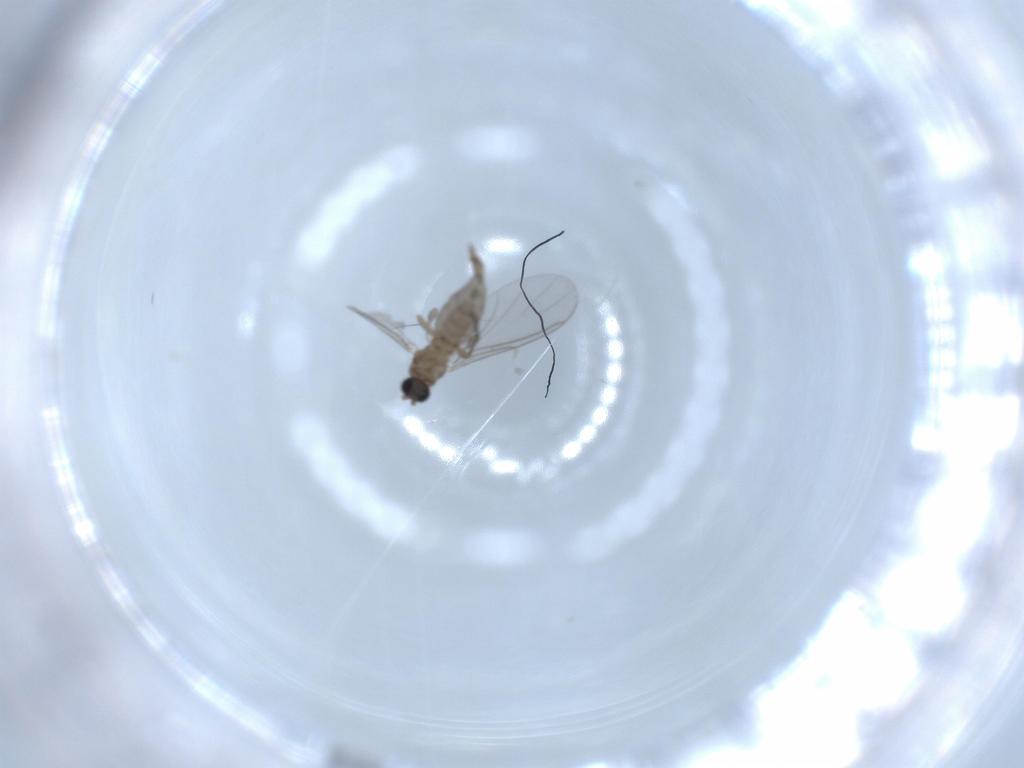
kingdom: Animalia
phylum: Arthropoda
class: Insecta
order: Diptera
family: Sciaridae
